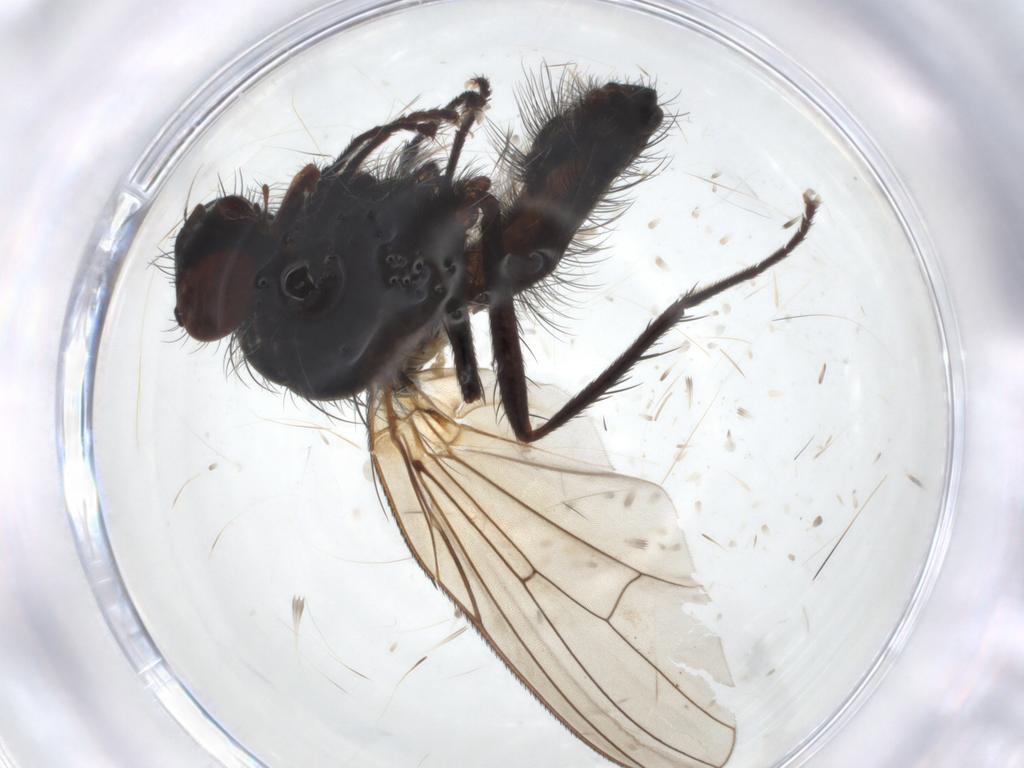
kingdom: Animalia
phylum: Arthropoda
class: Insecta
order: Diptera
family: Anthomyiidae
